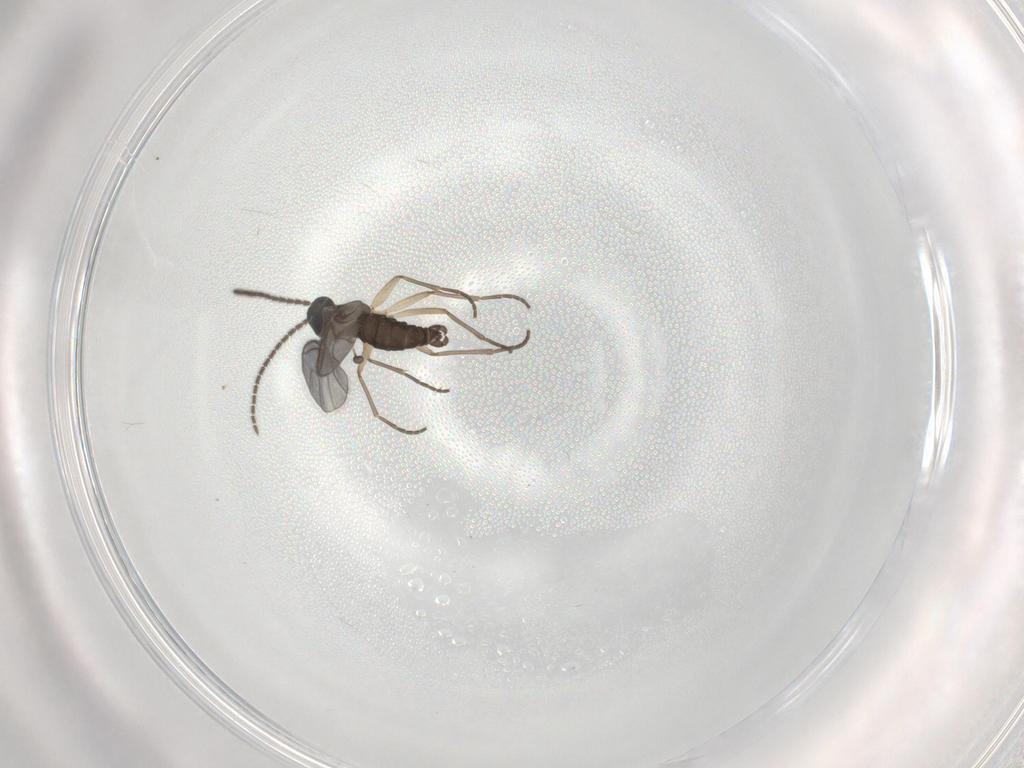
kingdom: Animalia
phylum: Arthropoda
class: Insecta
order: Diptera
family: Sciaridae
